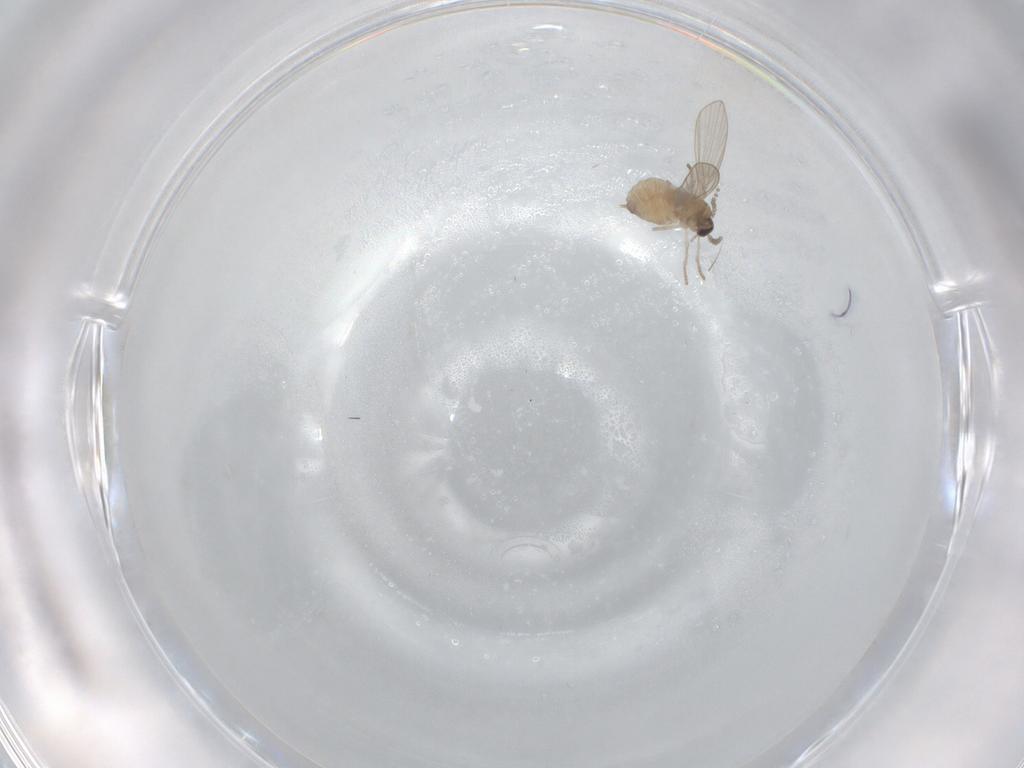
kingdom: Animalia
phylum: Arthropoda
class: Insecta
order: Diptera
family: Psychodidae
